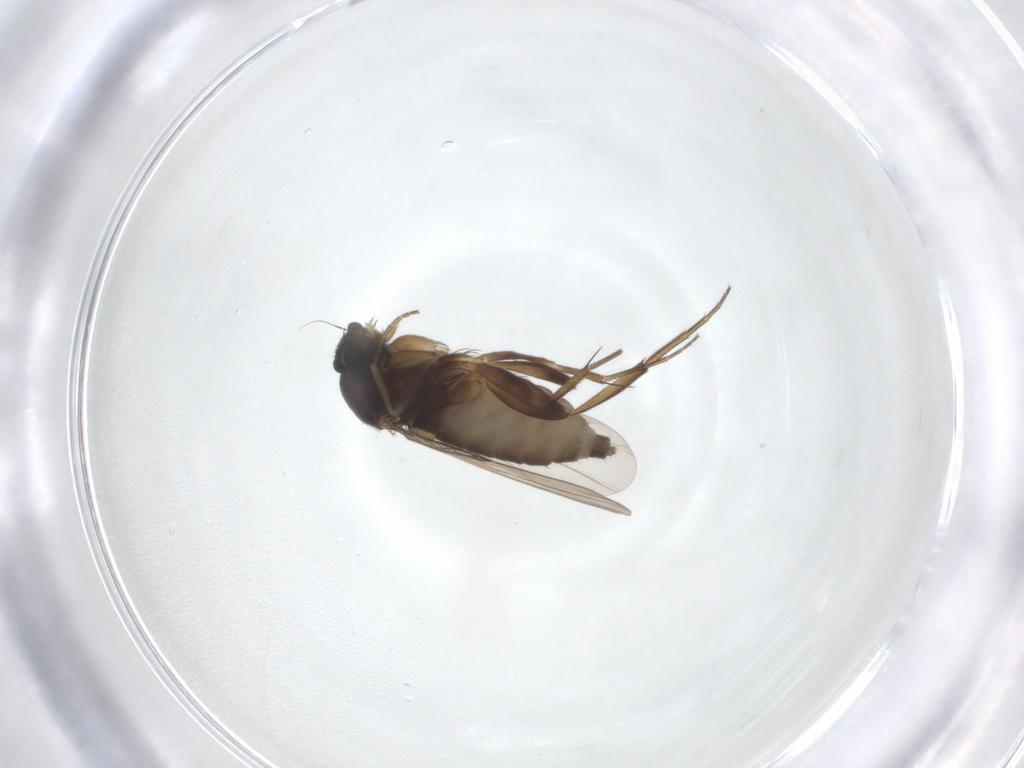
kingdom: Animalia
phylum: Arthropoda
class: Insecta
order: Diptera
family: Phoridae
